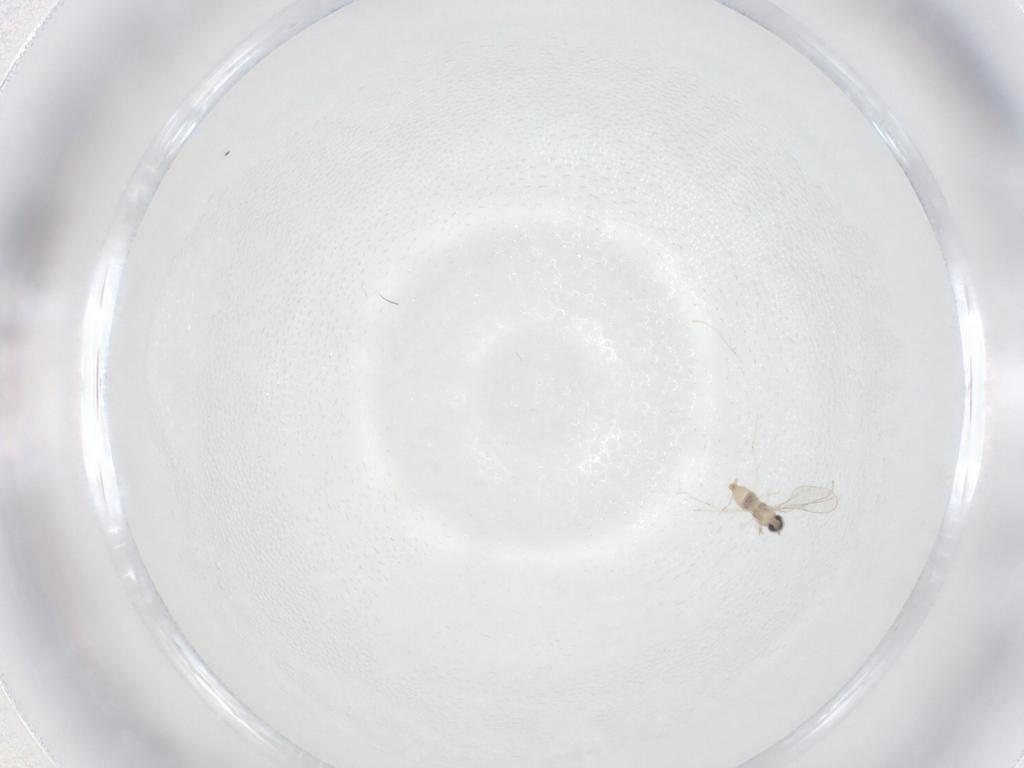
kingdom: Animalia
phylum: Arthropoda
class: Insecta
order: Diptera
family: Cecidomyiidae
